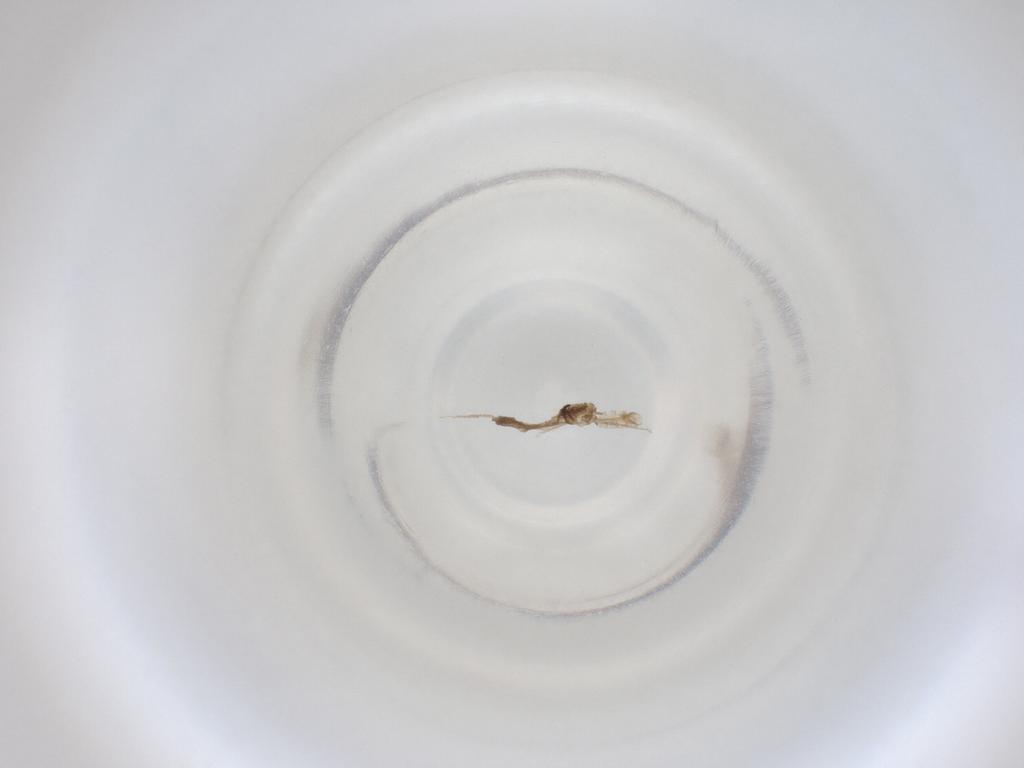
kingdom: Animalia
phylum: Arthropoda
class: Insecta
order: Diptera
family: Cecidomyiidae
